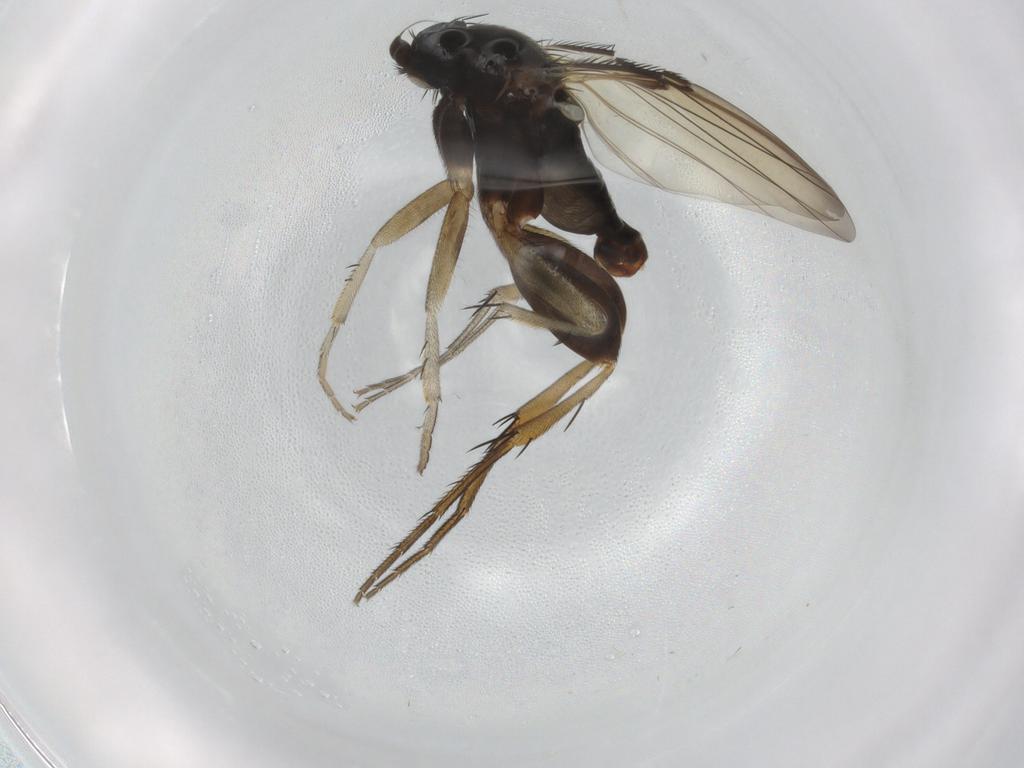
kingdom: Animalia
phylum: Arthropoda
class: Insecta
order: Diptera
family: Phoridae
